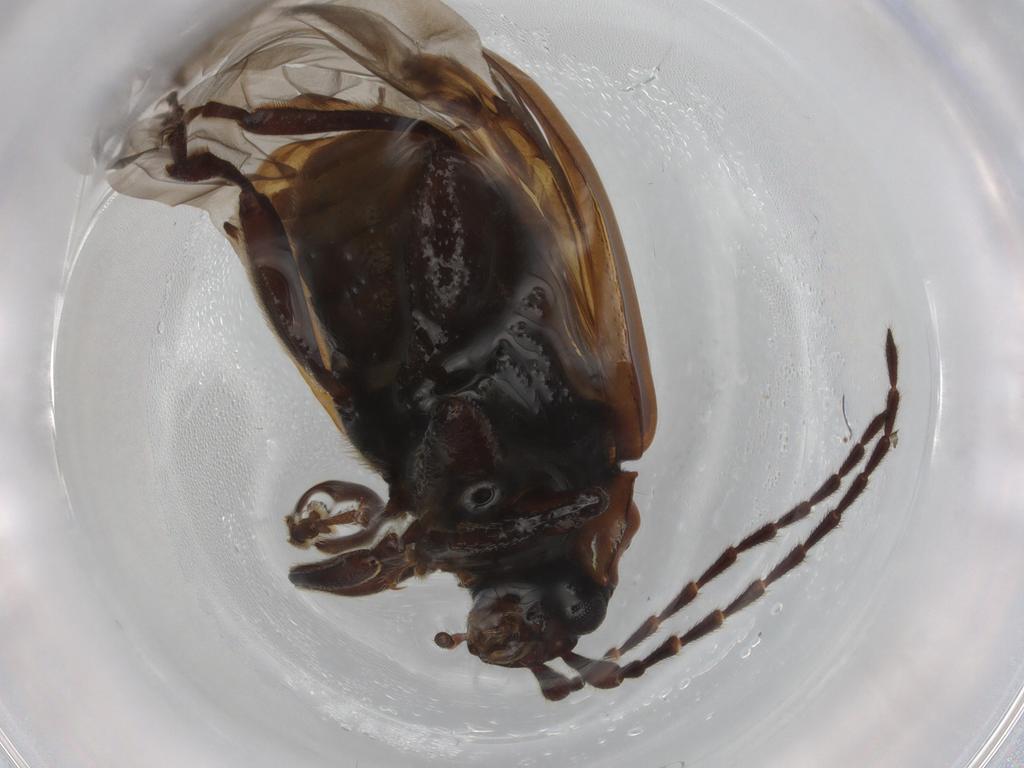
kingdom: Animalia
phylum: Arthropoda
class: Insecta
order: Coleoptera
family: Chrysomelidae
